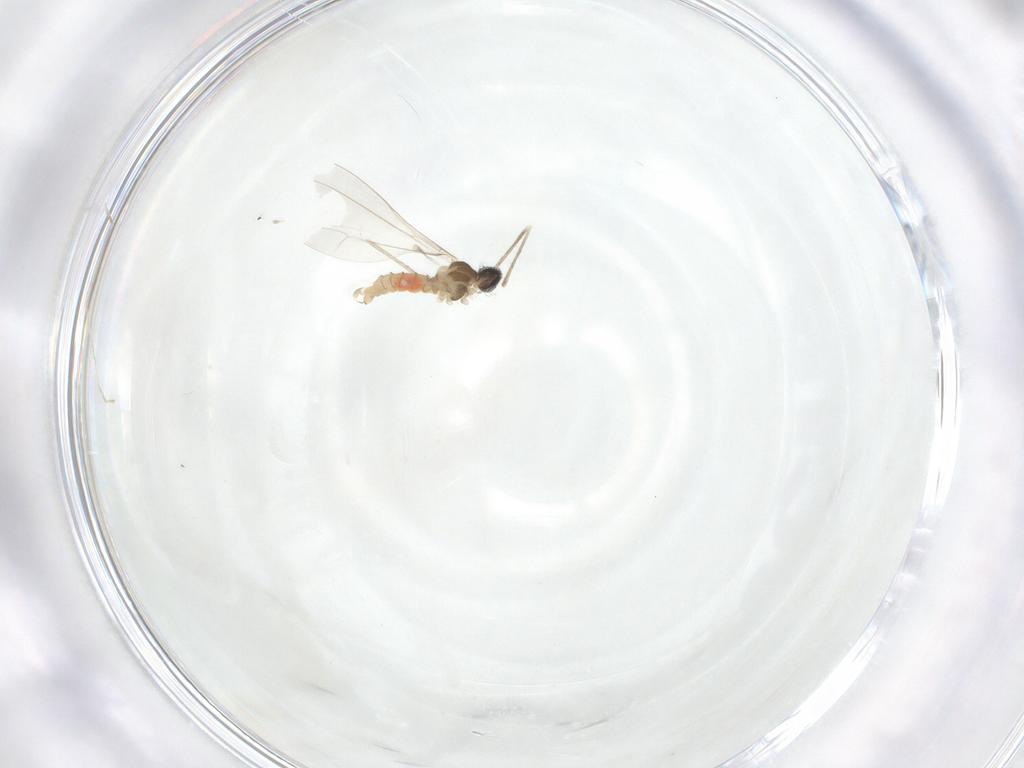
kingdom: Animalia
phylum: Arthropoda
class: Insecta
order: Diptera
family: Cecidomyiidae
